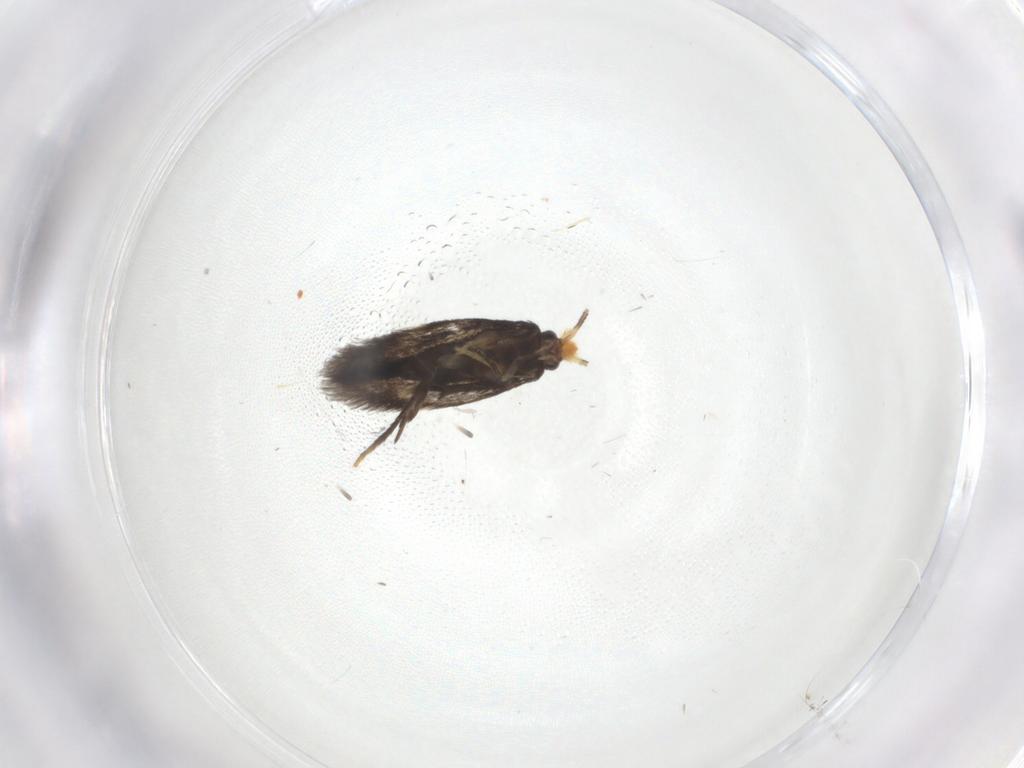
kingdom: Animalia
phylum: Arthropoda
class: Insecta
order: Lepidoptera
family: Nepticulidae
